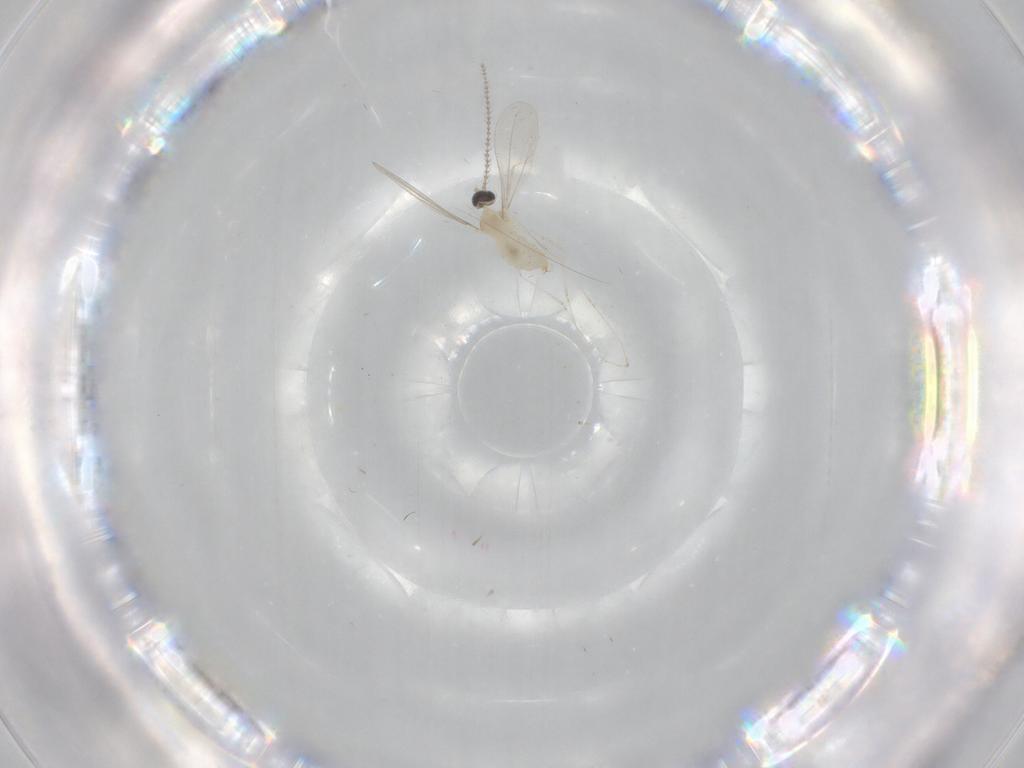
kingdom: Animalia
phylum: Arthropoda
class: Insecta
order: Diptera
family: Cecidomyiidae
